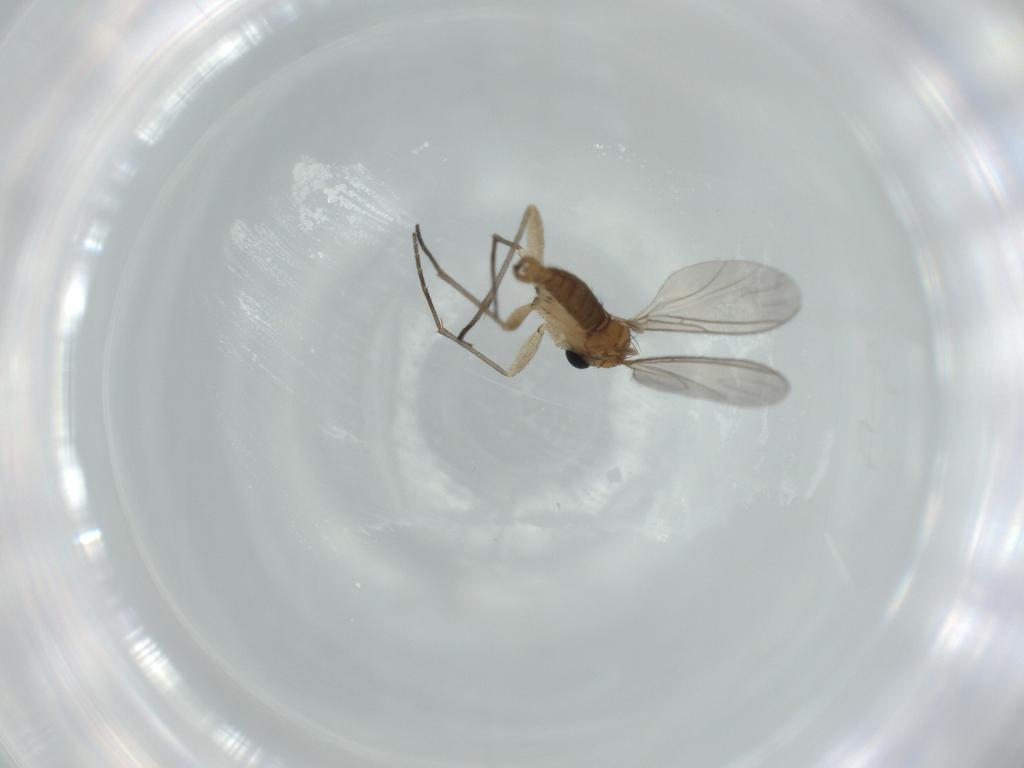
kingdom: Animalia
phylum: Arthropoda
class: Insecta
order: Diptera
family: Sciaridae
